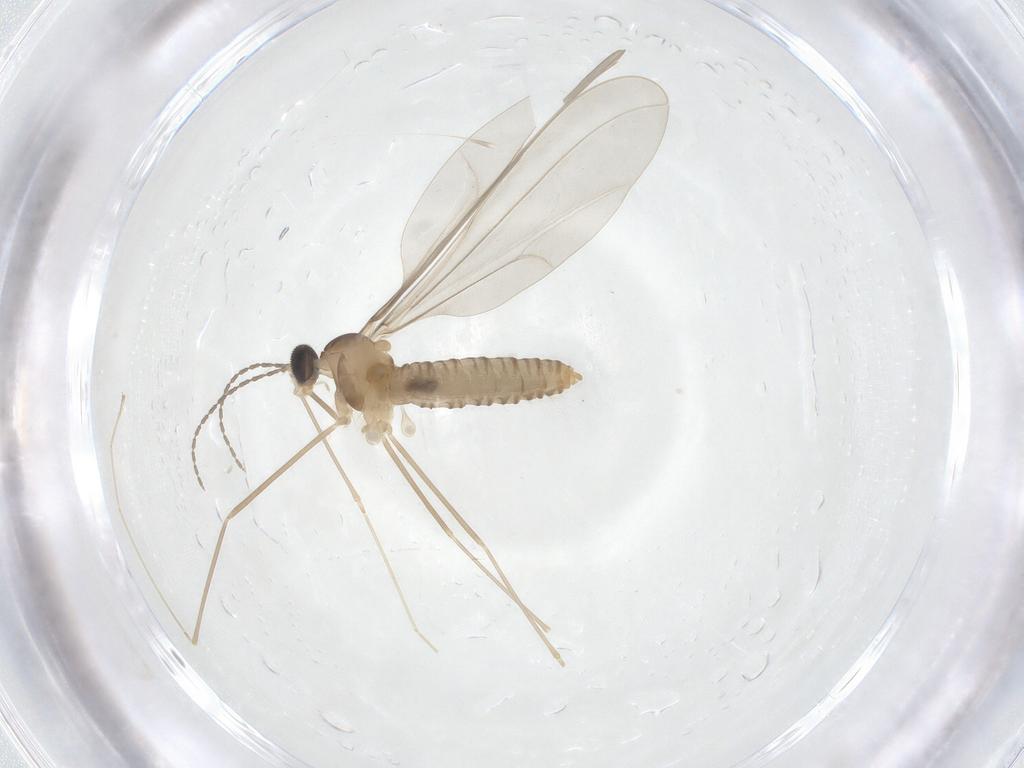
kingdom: Animalia
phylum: Arthropoda
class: Insecta
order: Diptera
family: Cecidomyiidae
